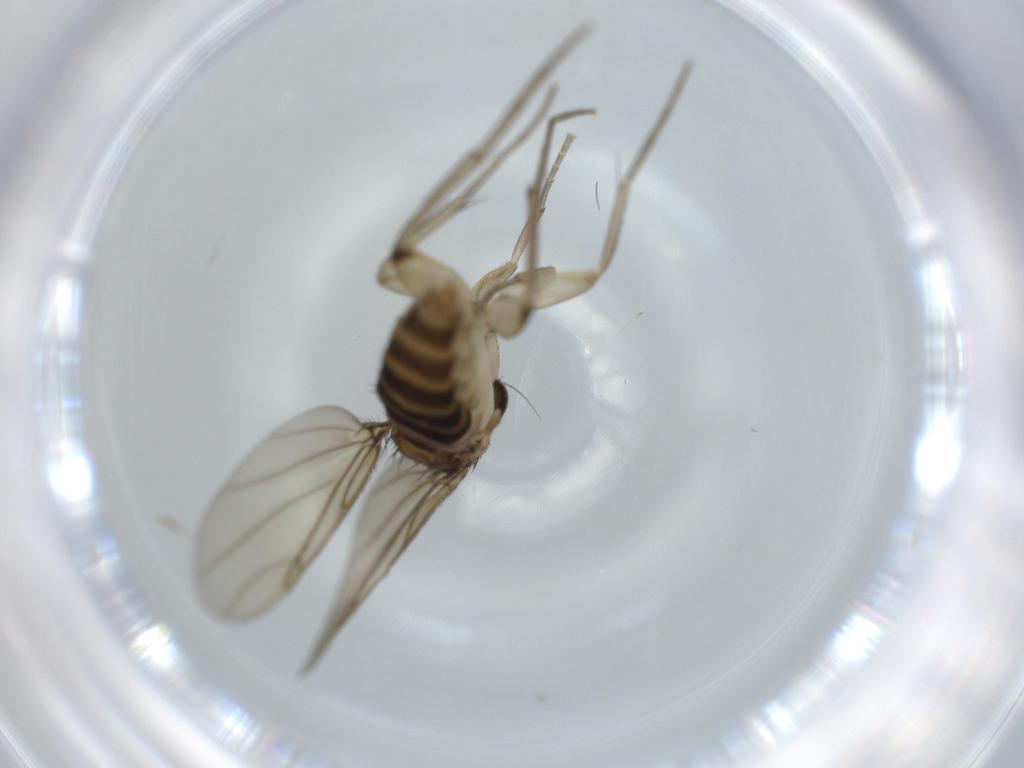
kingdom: Animalia
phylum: Arthropoda
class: Insecta
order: Diptera
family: Phoridae
